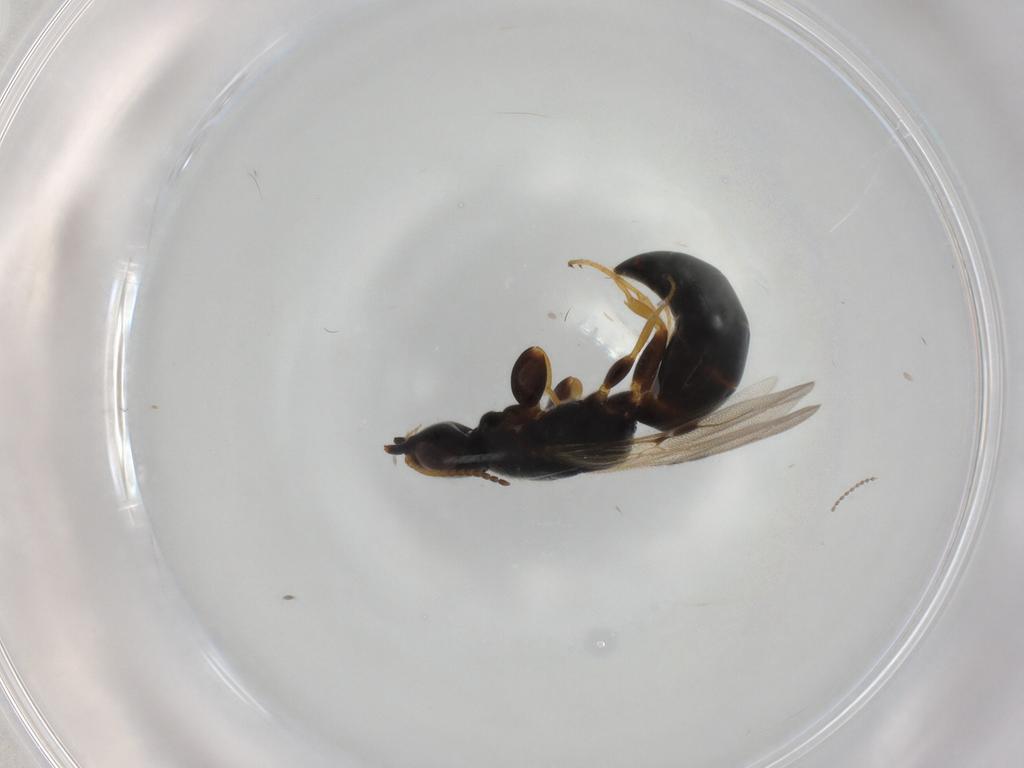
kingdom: Animalia
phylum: Arthropoda
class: Insecta
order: Hymenoptera
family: Bethylidae
